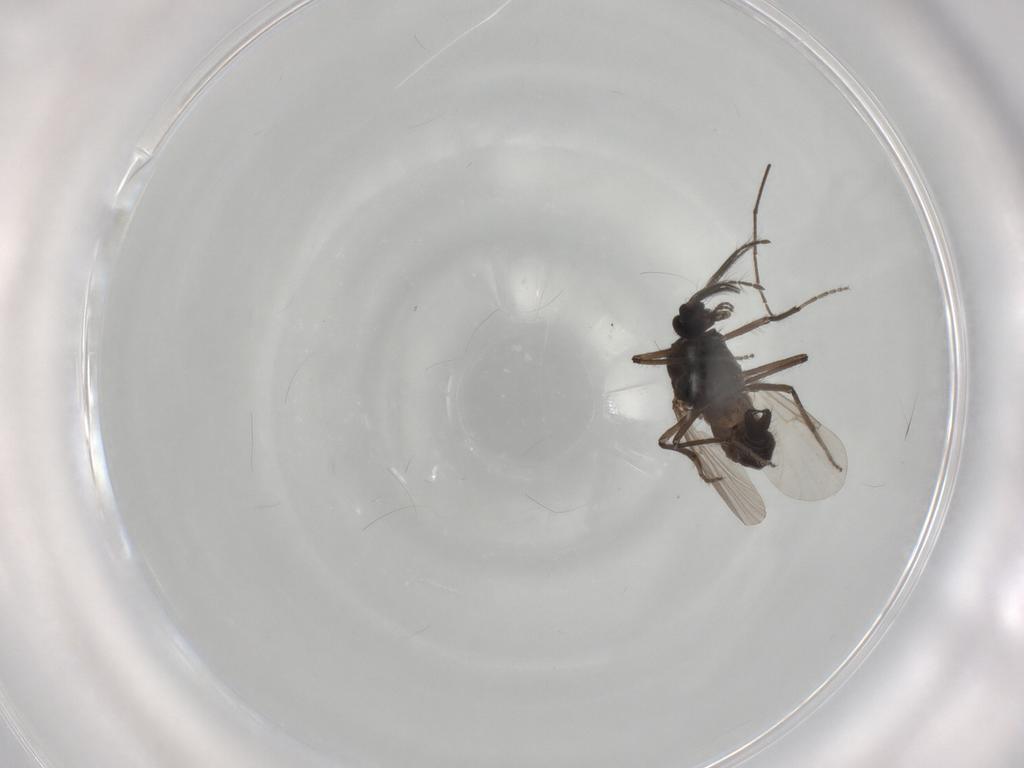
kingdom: Animalia
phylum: Arthropoda
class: Insecta
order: Diptera
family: Ceratopogonidae
